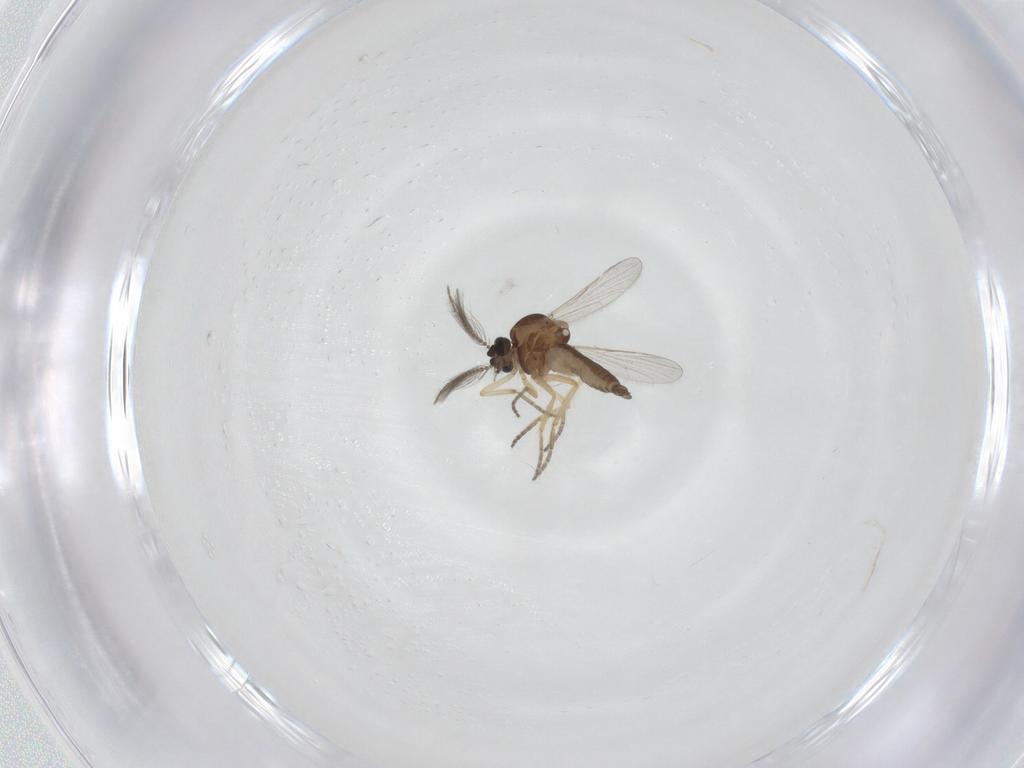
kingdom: Animalia
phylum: Arthropoda
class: Insecta
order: Diptera
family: Ceratopogonidae
